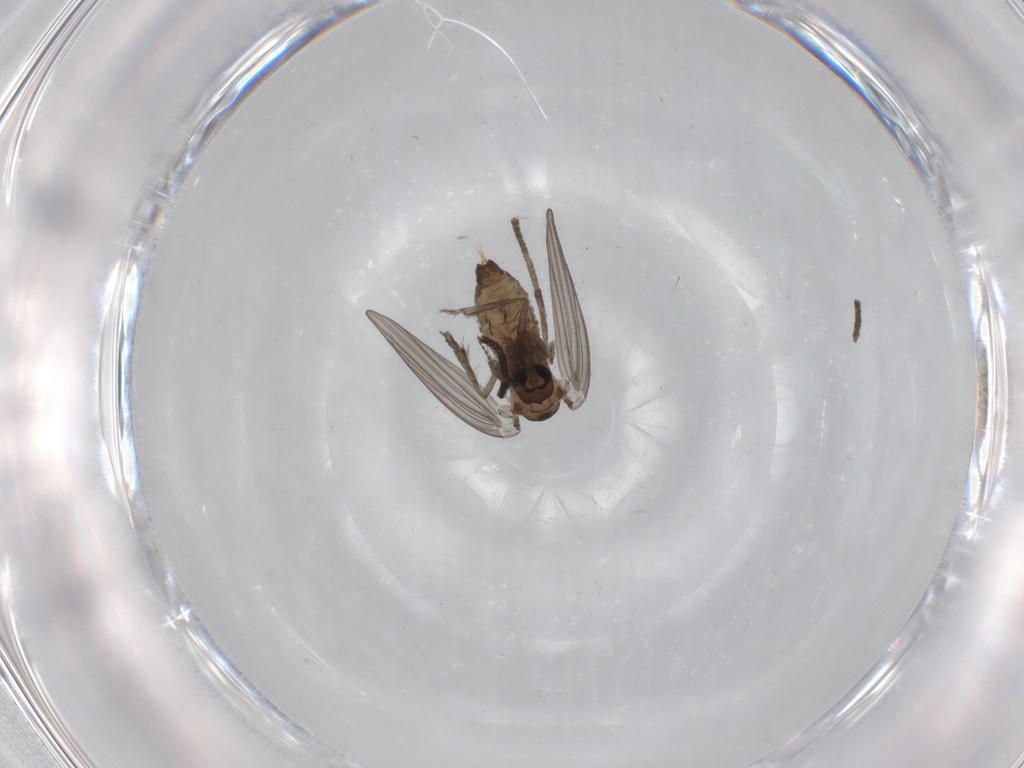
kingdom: Animalia
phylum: Arthropoda
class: Insecta
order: Diptera
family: Psychodidae
